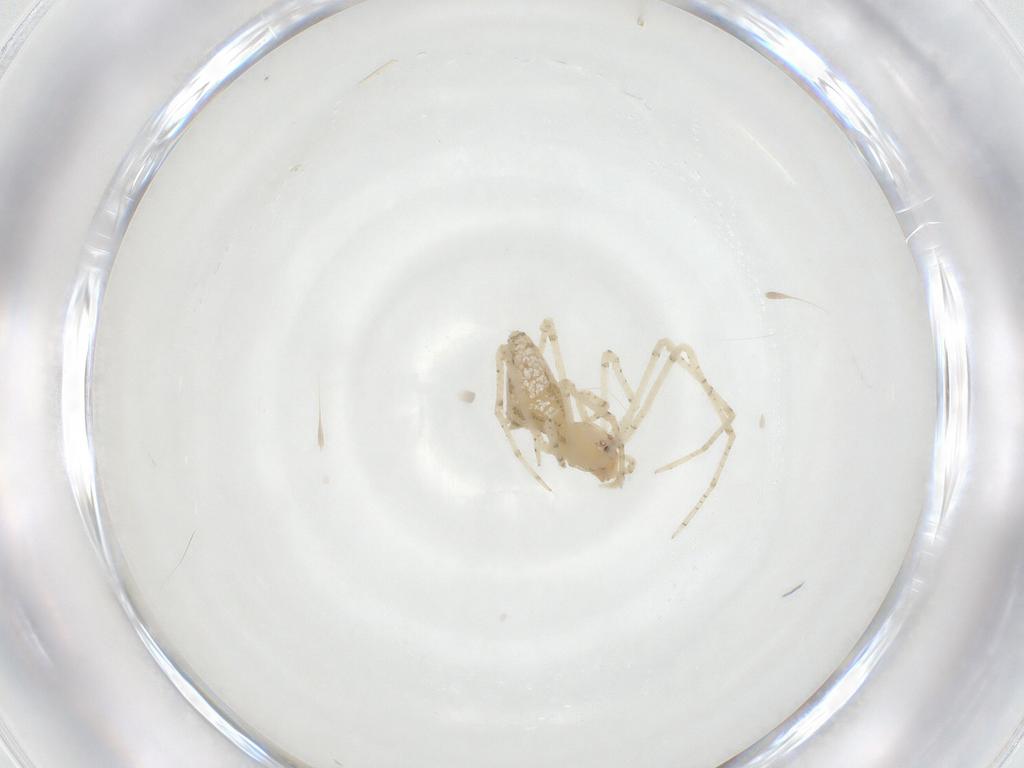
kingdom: Animalia
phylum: Arthropoda
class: Arachnida
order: Araneae
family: Theridiidae
